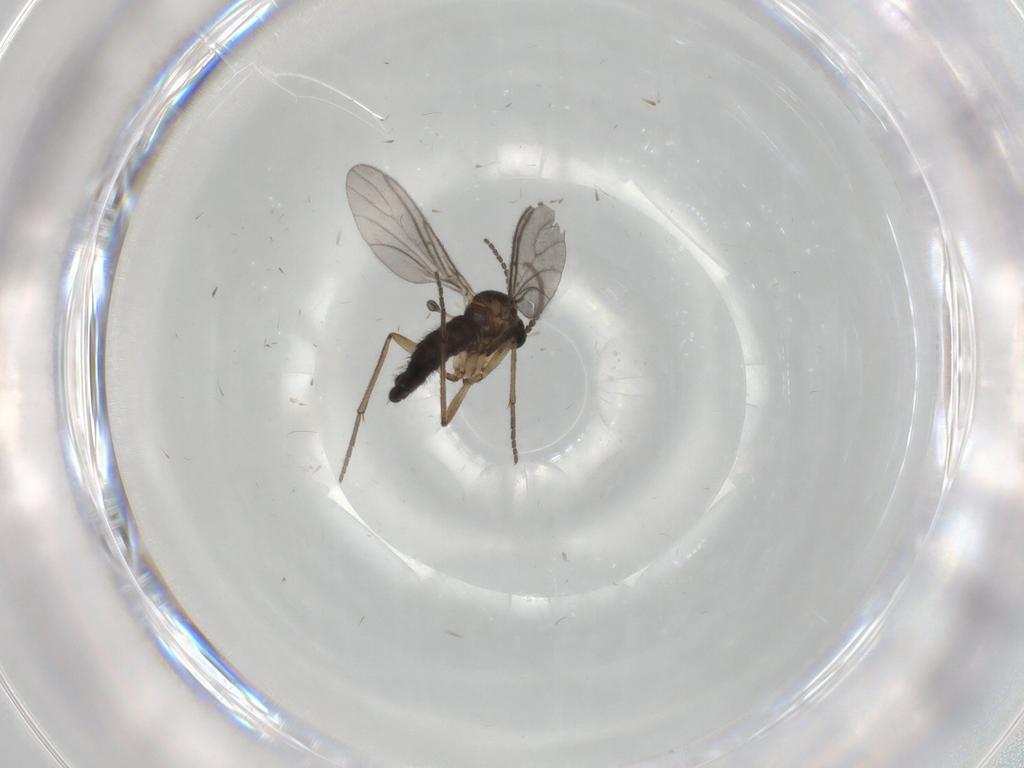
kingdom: Animalia
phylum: Arthropoda
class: Insecta
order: Diptera
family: Sciaridae
